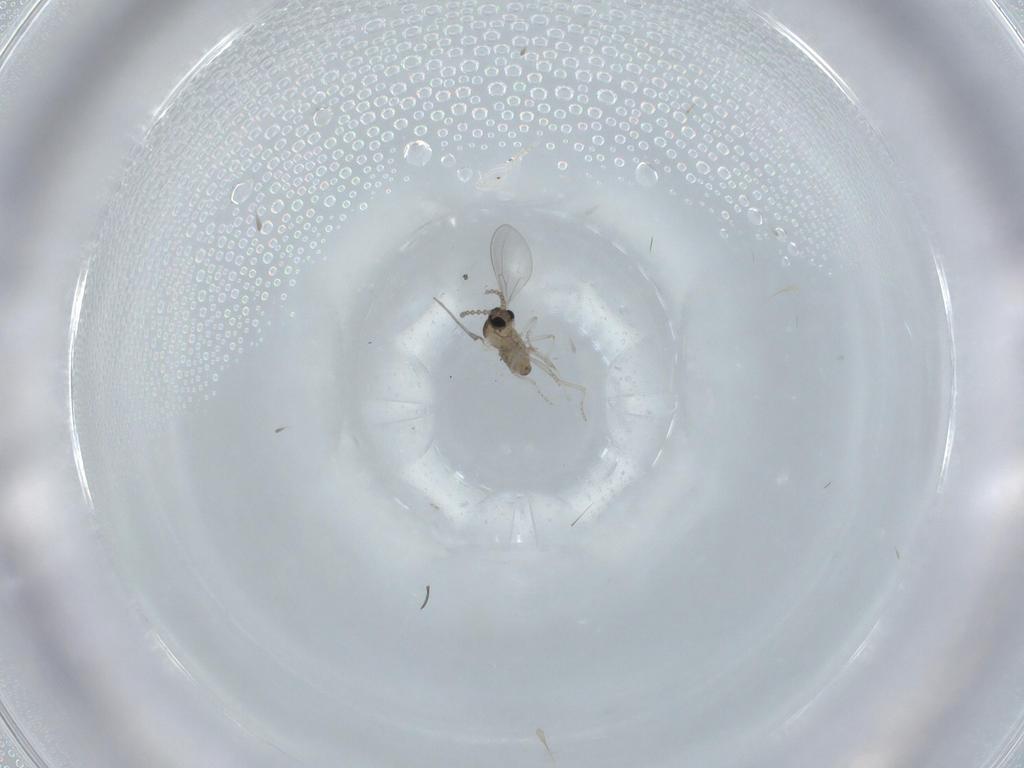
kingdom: Animalia
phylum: Arthropoda
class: Insecta
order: Diptera
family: Cecidomyiidae
